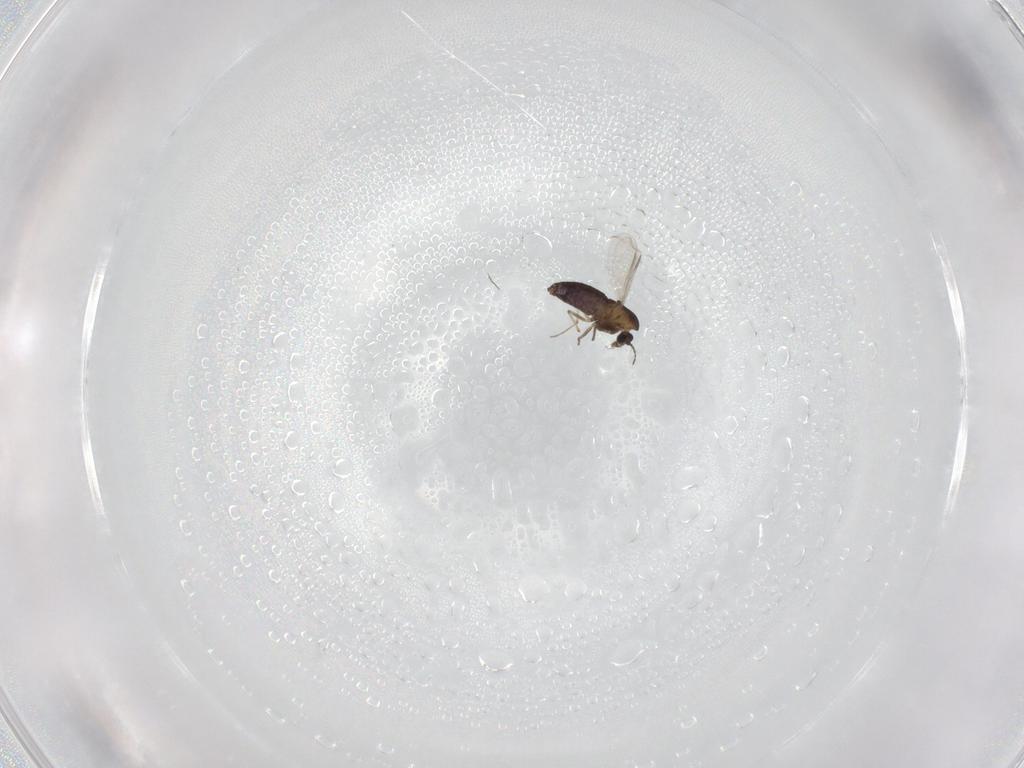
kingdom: Animalia
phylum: Arthropoda
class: Insecta
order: Diptera
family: Chironomidae
